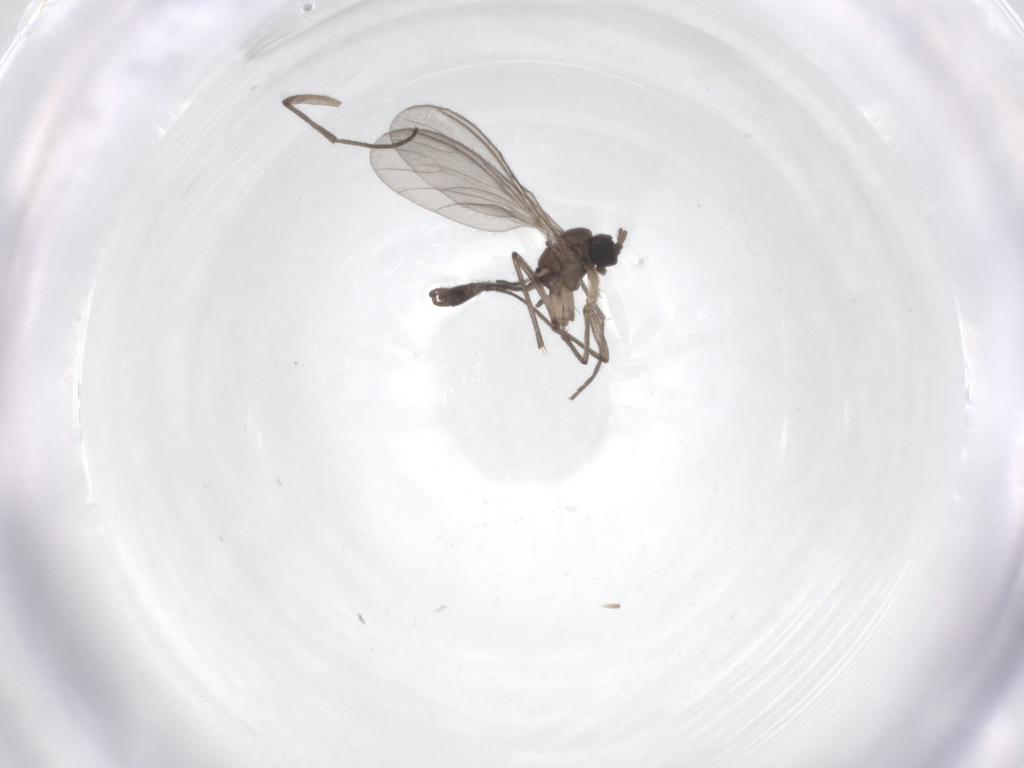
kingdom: Animalia
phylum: Arthropoda
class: Insecta
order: Diptera
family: Sciaridae
